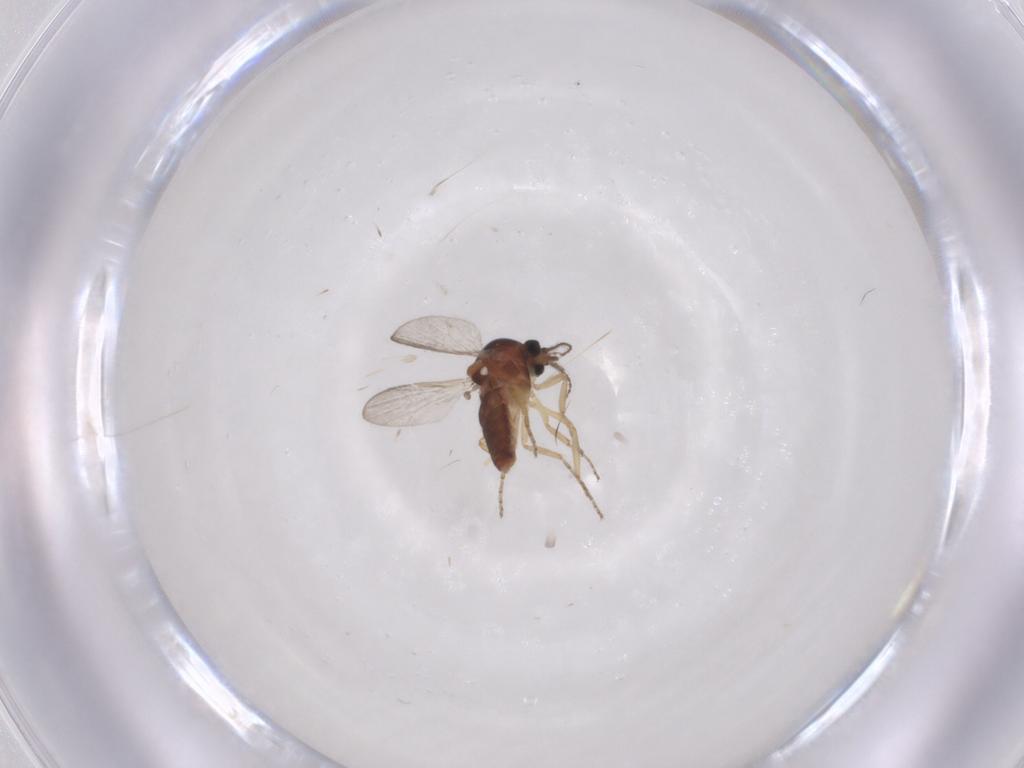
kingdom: Animalia
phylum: Arthropoda
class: Insecta
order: Diptera
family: Ceratopogonidae
